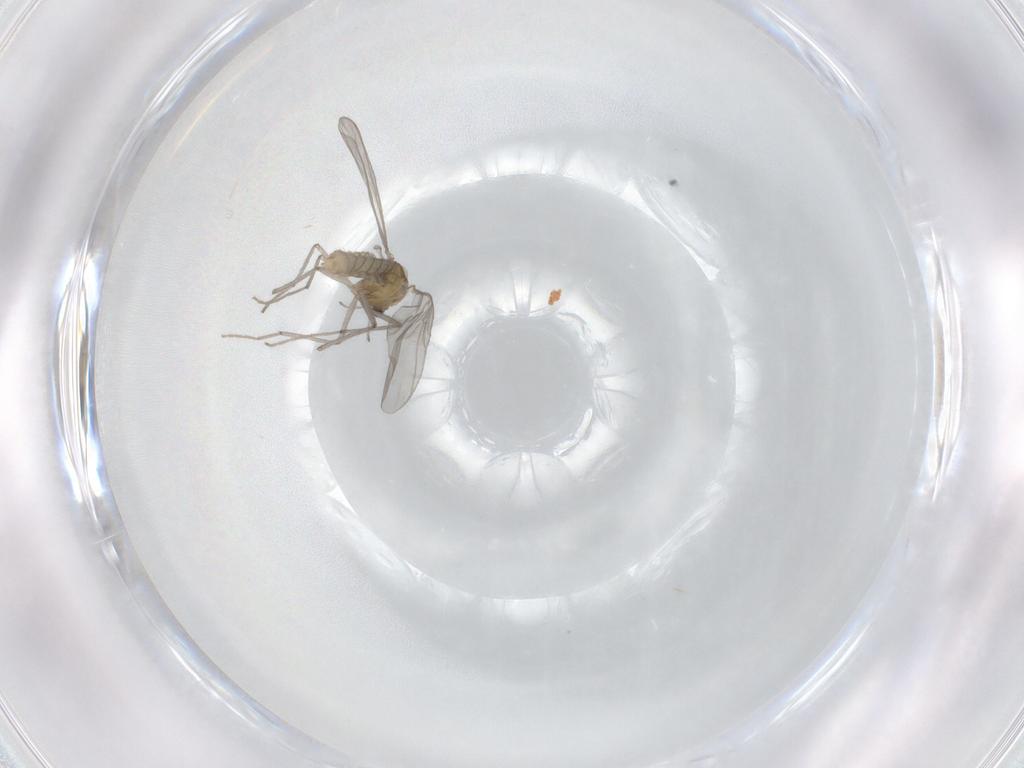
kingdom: Animalia
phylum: Arthropoda
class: Insecta
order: Diptera
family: Chironomidae
